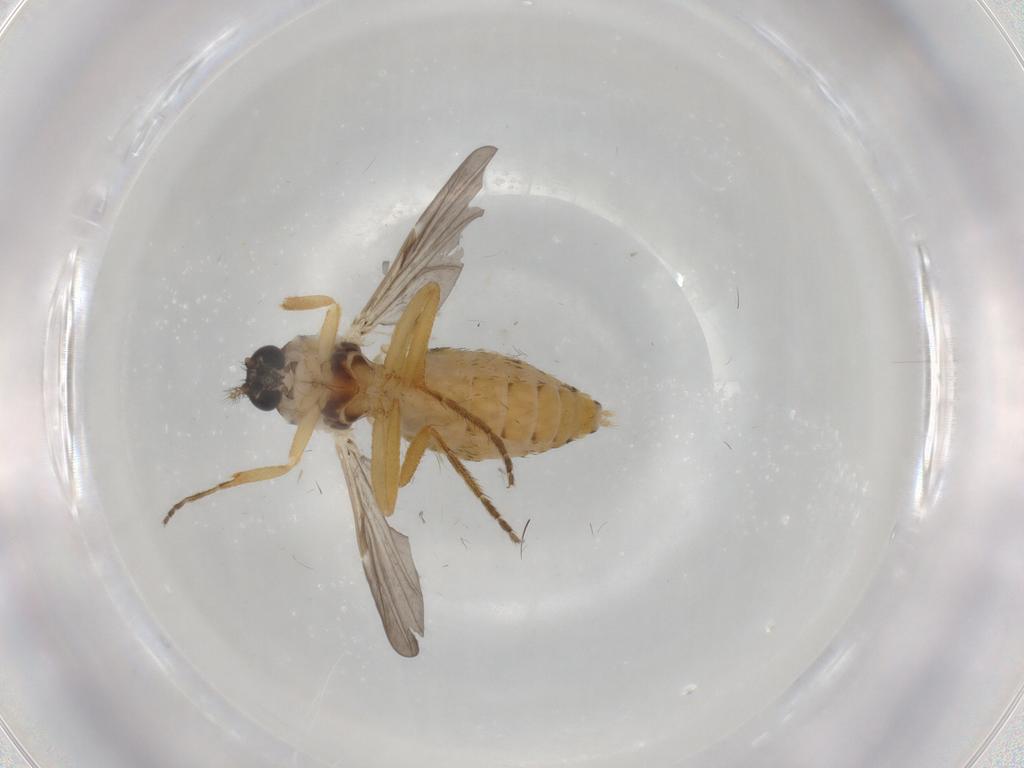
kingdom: Animalia
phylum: Arthropoda
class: Insecta
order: Diptera
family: Ceratopogonidae
